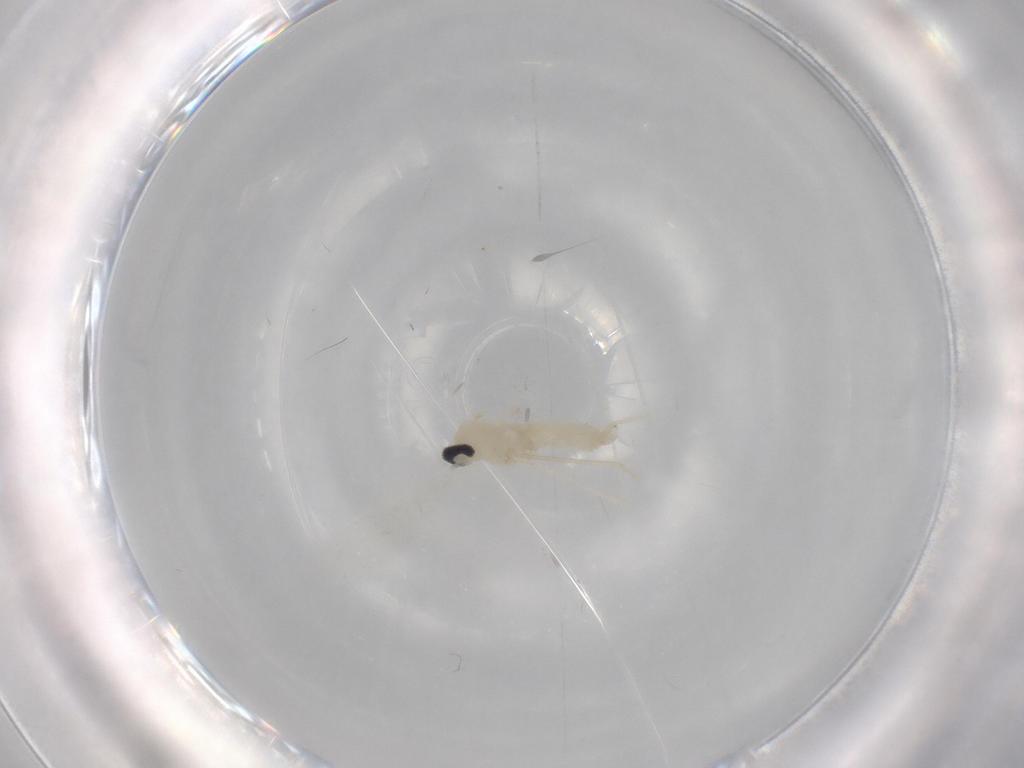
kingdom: Animalia
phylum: Arthropoda
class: Insecta
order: Diptera
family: Cecidomyiidae
